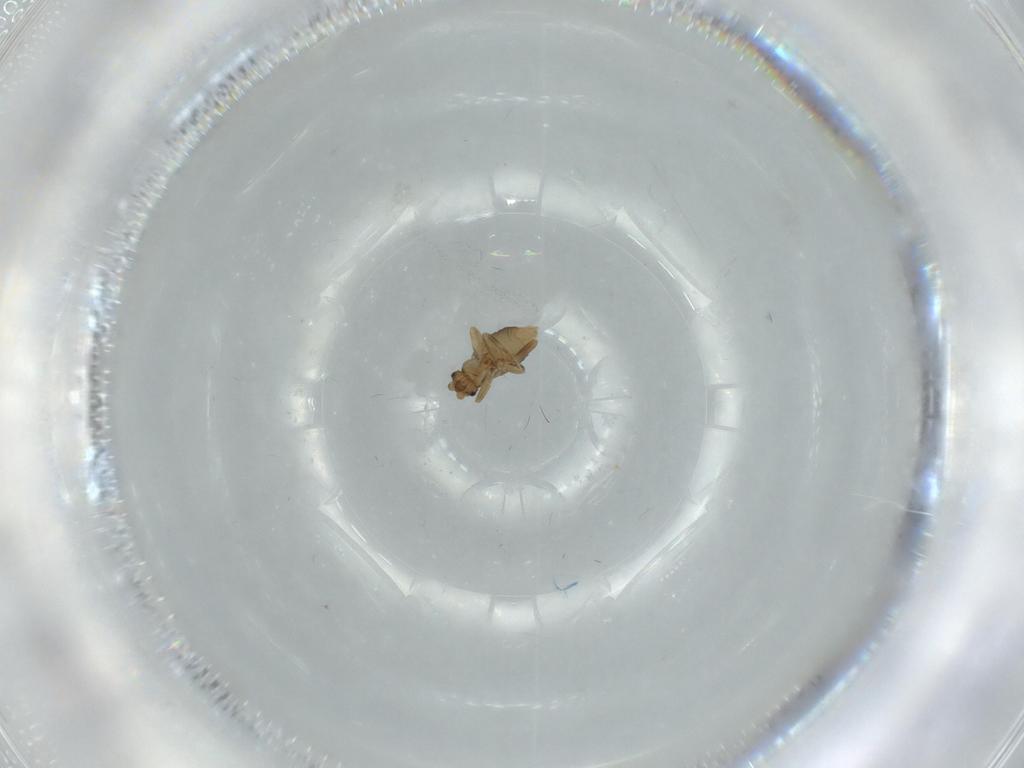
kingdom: Animalia
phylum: Arthropoda
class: Insecta
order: Diptera
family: Phoridae
